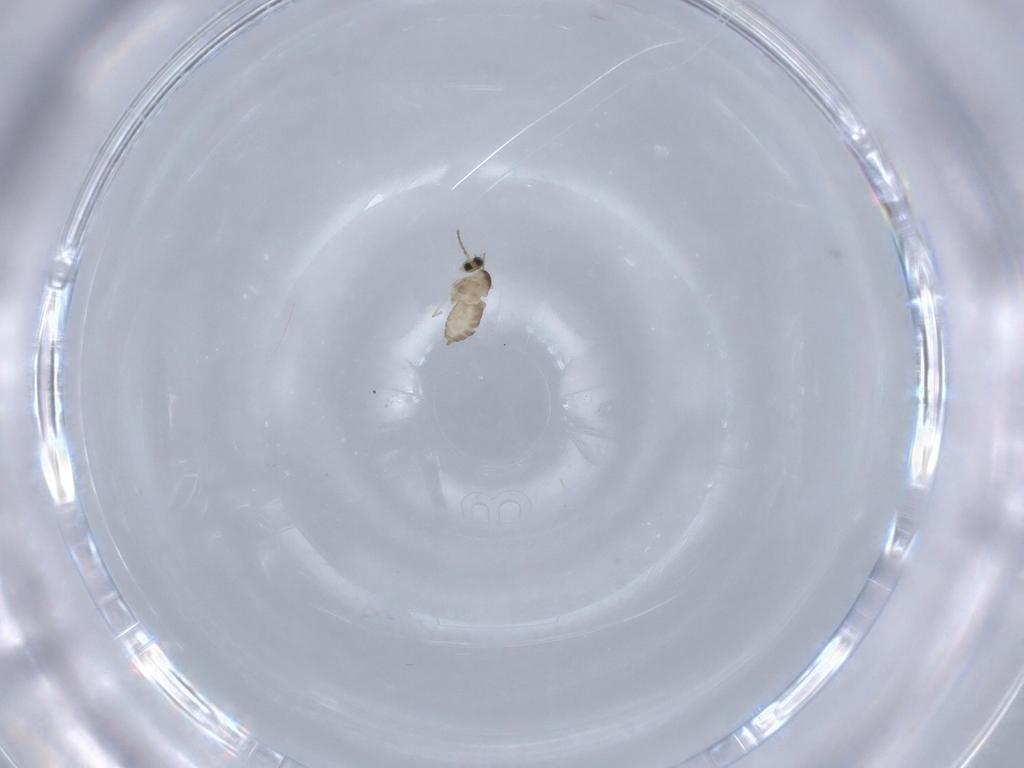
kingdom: Animalia
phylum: Arthropoda
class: Insecta
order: Diptera
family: Cecidomyiidae
